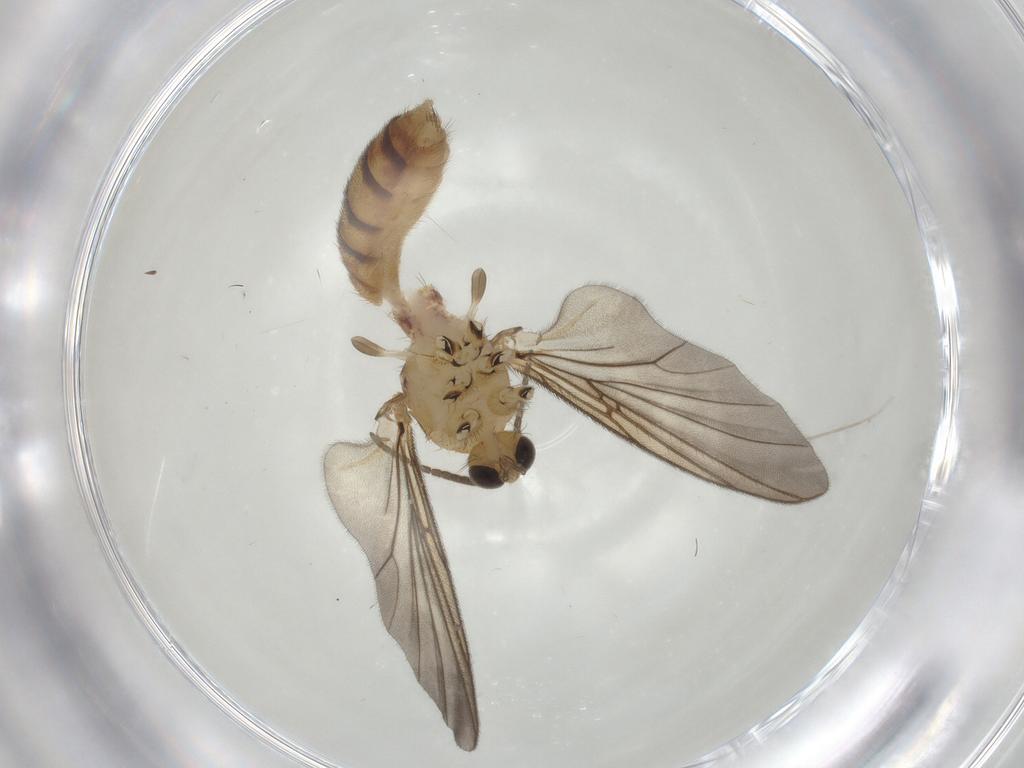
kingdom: Animalia
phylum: Arthropoda
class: Insecta
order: Diptera
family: Mycetophilidae
